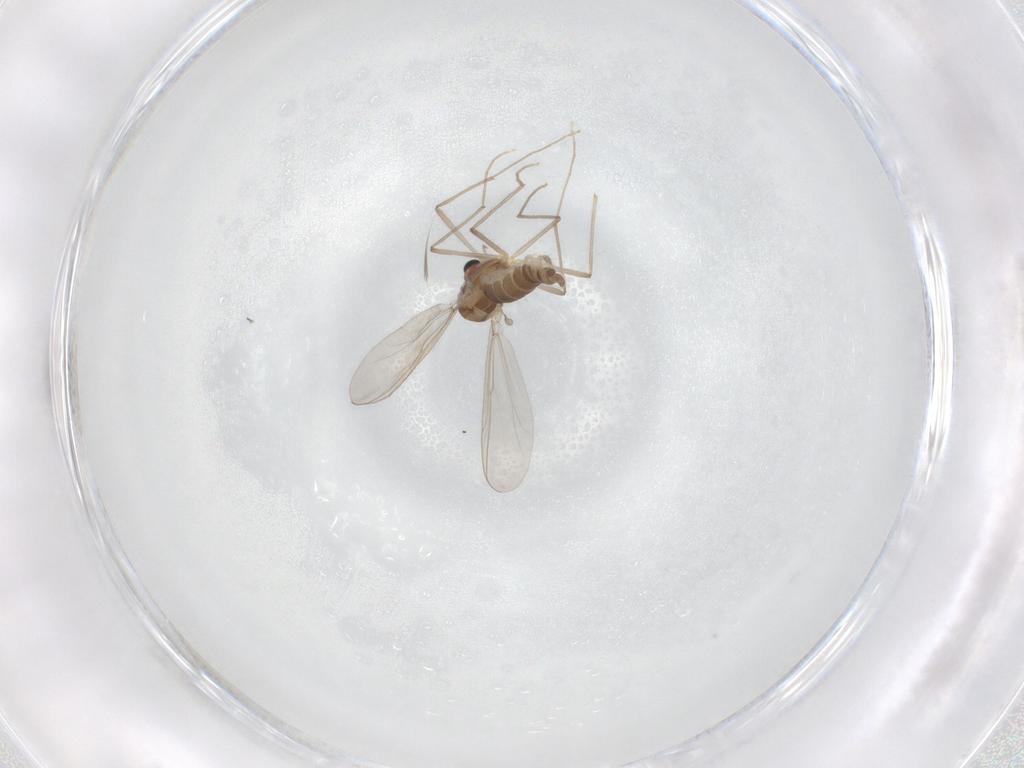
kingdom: Animalia
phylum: Arthropoda
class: Insecta
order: Diptera
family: Chironomidae
